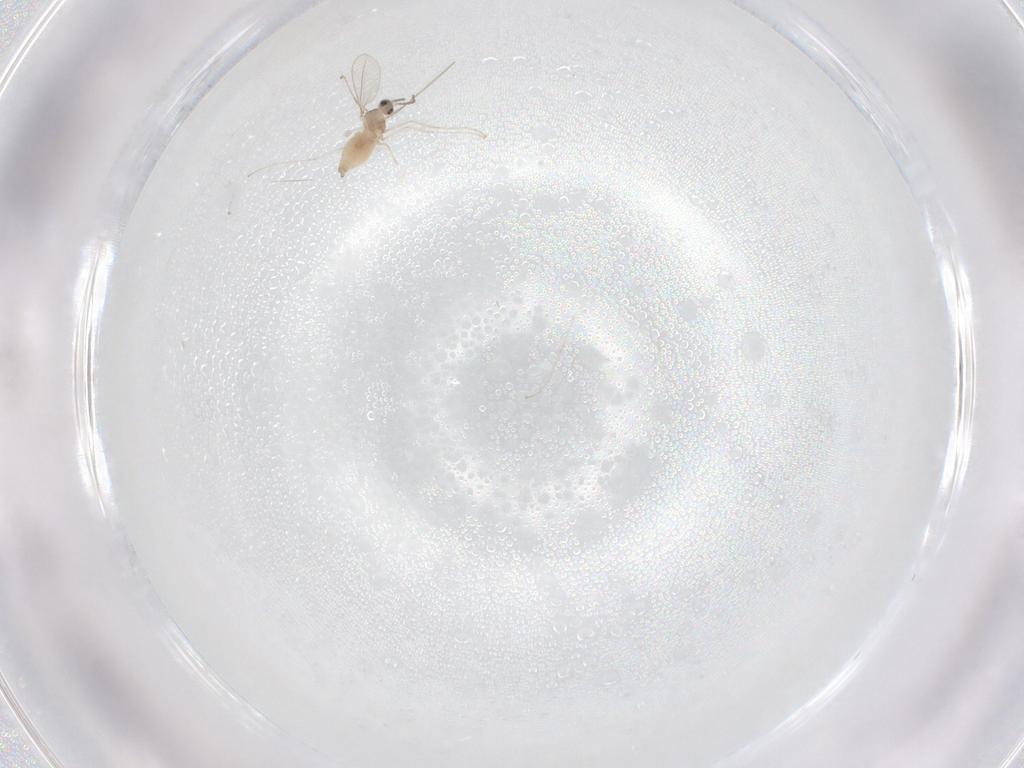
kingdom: Animalia
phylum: Arthropoda
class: Insecta
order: Diptera
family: Cecidomyiidae
